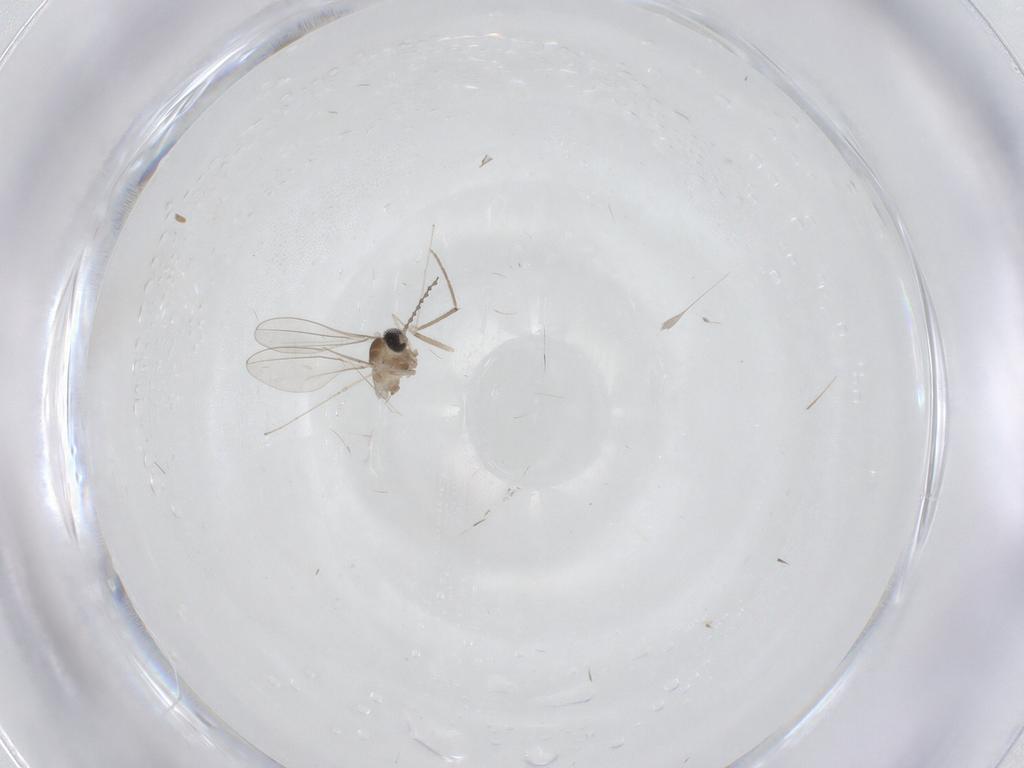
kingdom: Animalia
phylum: Arthropoda
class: Insecta
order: Diptera
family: Cecidomyiidae
